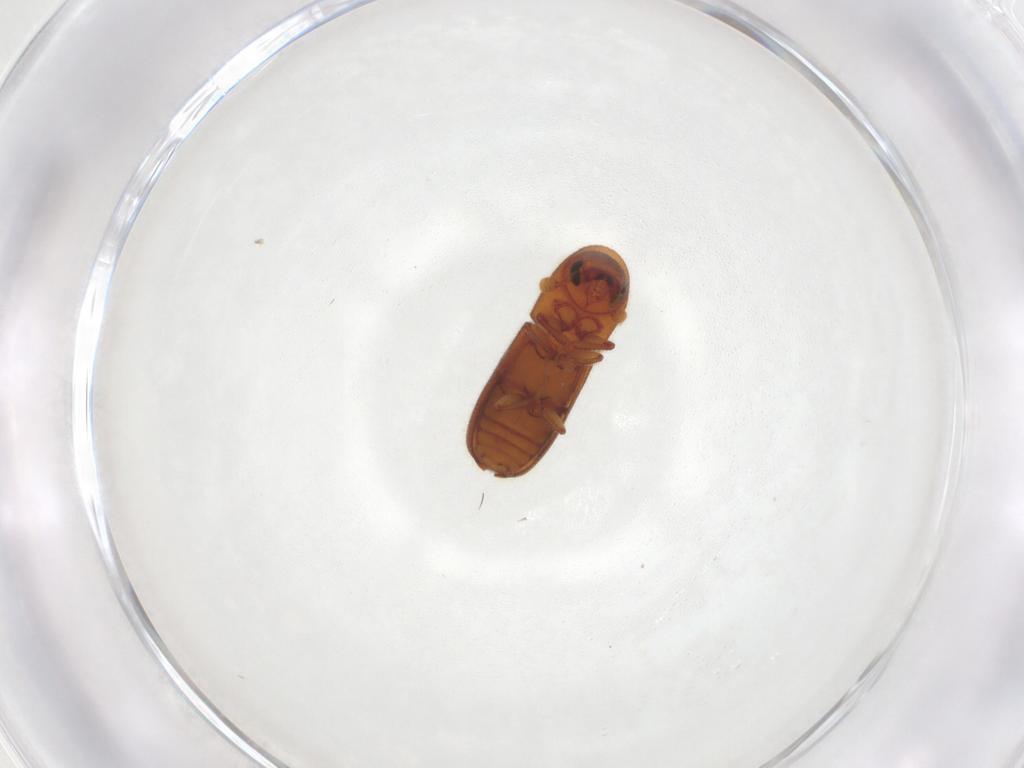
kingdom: Animalia
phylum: Arthropoda
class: Insecta
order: Coleoptera
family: Curculionidae
